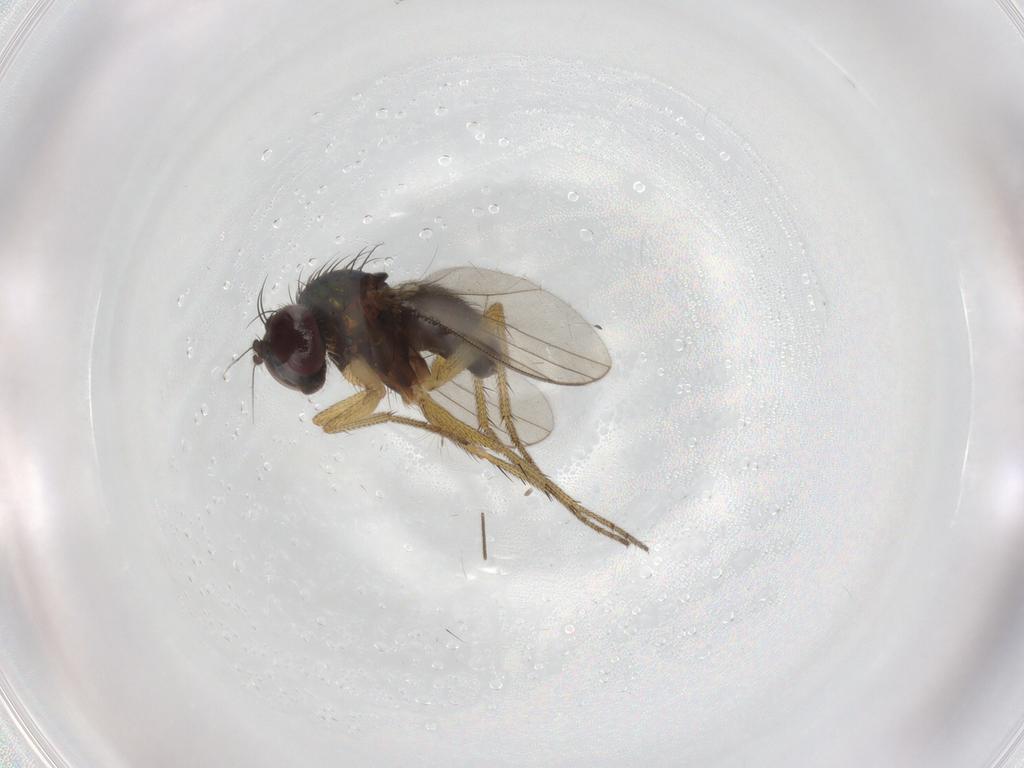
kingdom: Animalia
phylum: Arthropoda
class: Insecta
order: Diptera
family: Dolichopodidae
